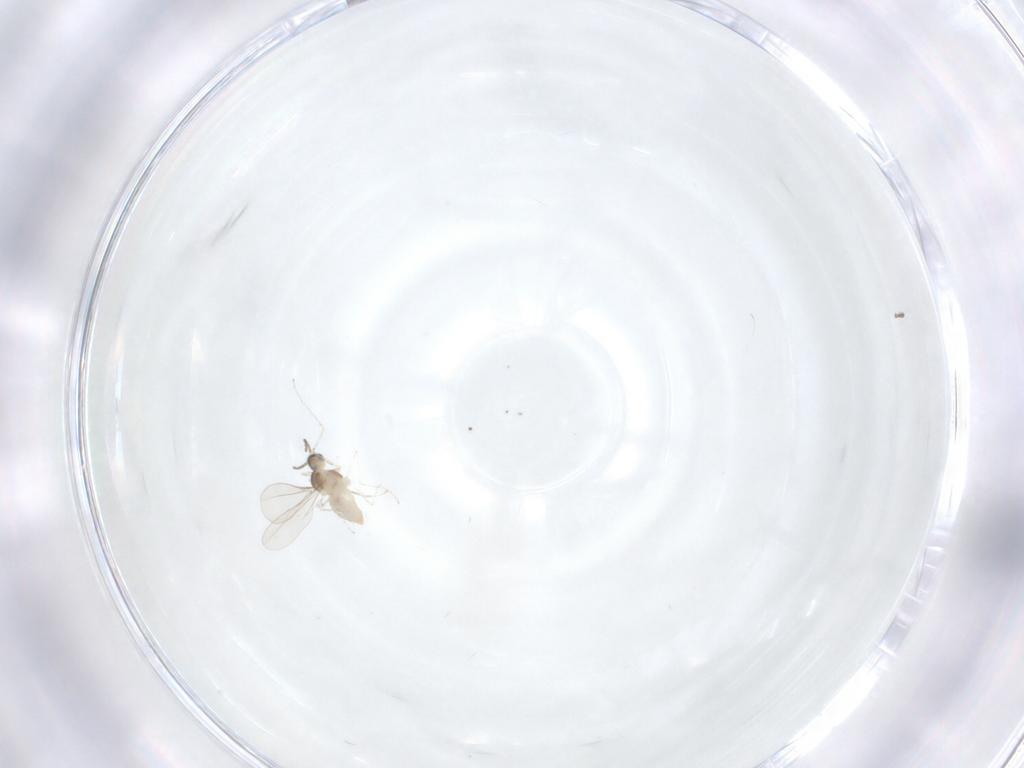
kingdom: Animalia
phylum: Arthropoda
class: Insecta
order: Diptera
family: Cecidomyiidae
